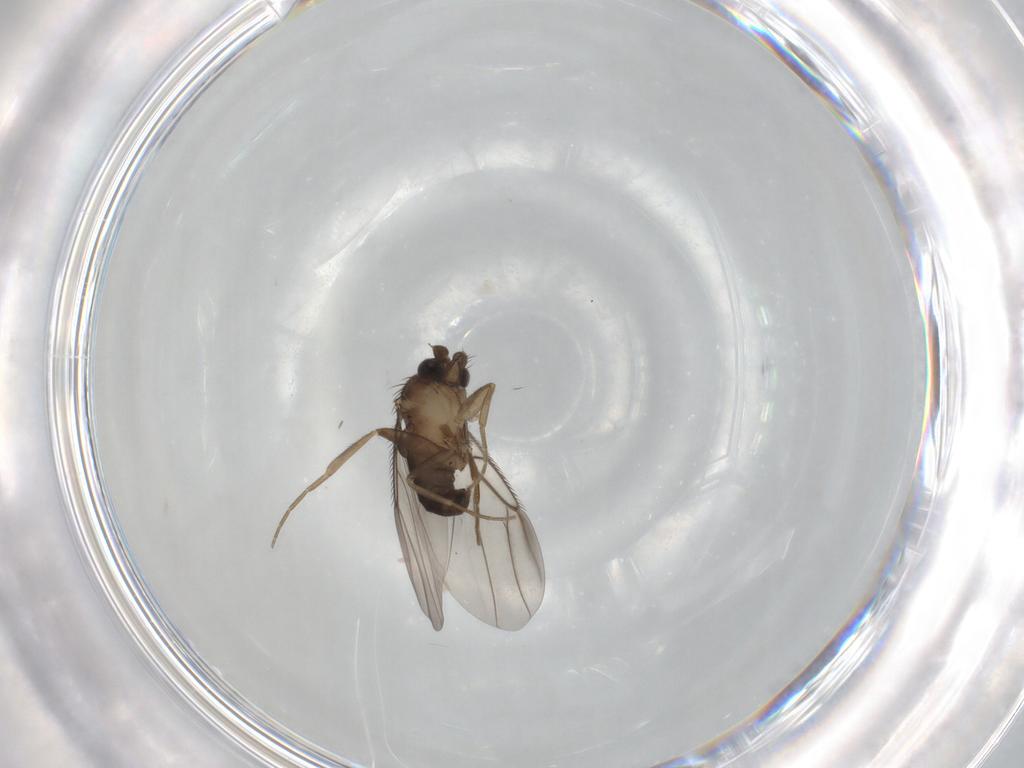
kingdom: Animalia
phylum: Arthropoda
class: Insecta
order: Diptera
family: Phoridae
